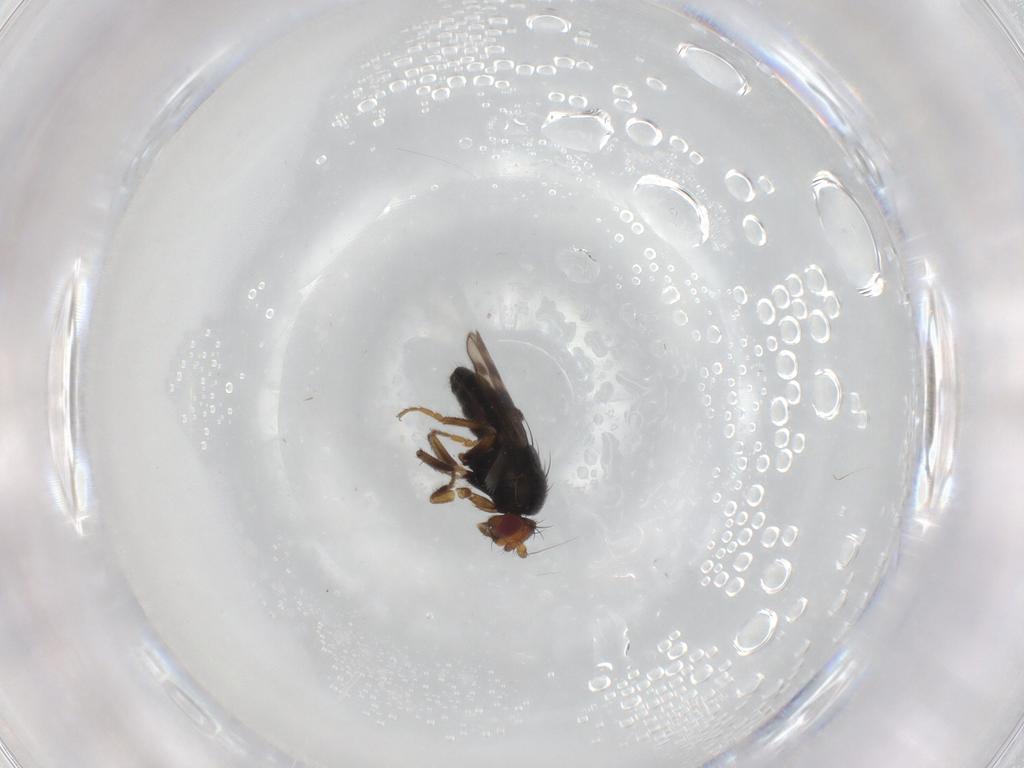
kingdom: Animalia
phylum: Arthropoda
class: Insecta
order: Diptera
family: Sphaeroceridae
